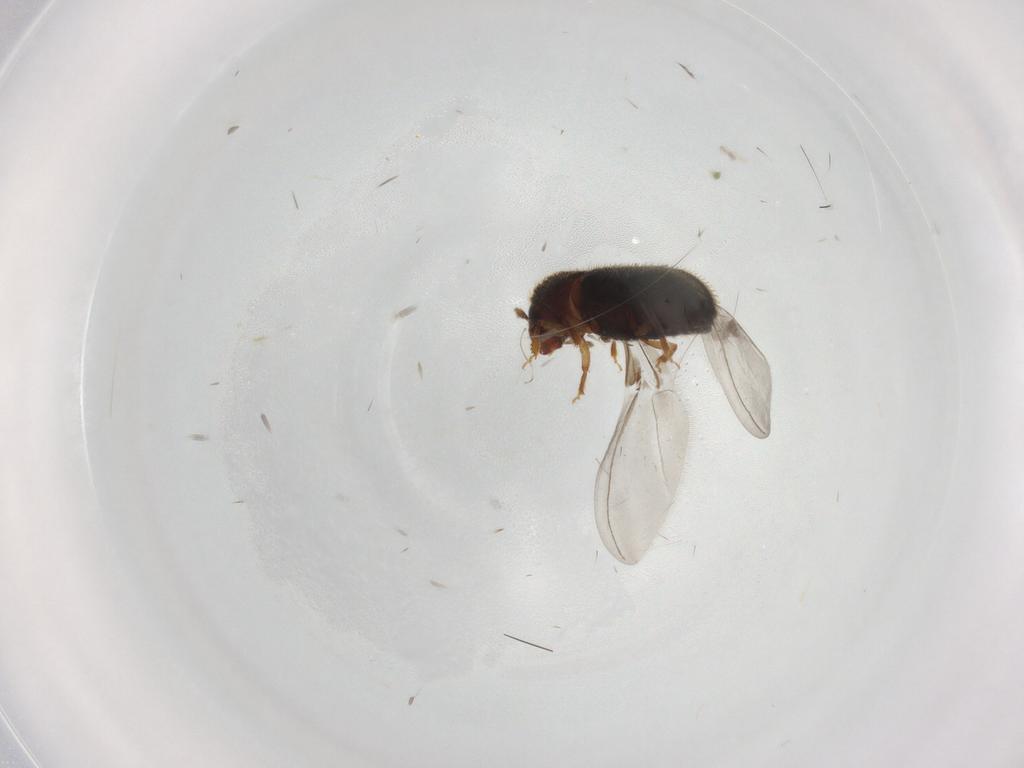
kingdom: Animalia
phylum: Arthropoda
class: Insecta
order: Coleoptera
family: Curculionidae
